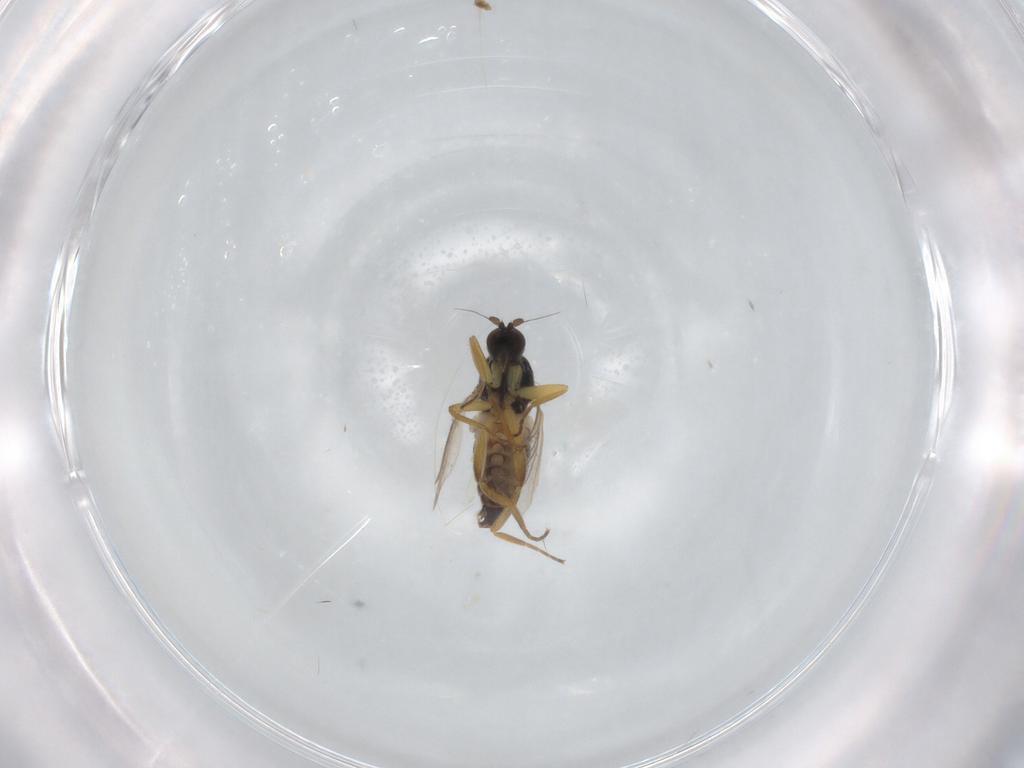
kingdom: Animalia
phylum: Arthropoda
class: Insecta
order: Diptera
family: Hybotidae
